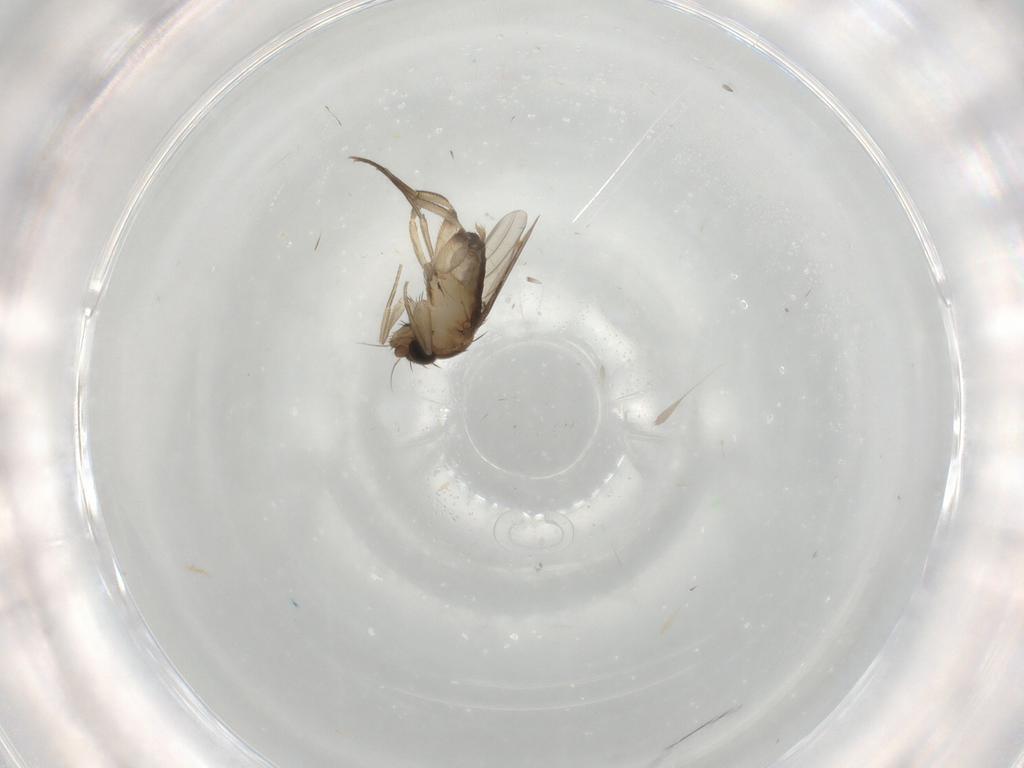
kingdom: Animalia
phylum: Arthropoda
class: Insecta
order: Diptera
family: Phoridae
